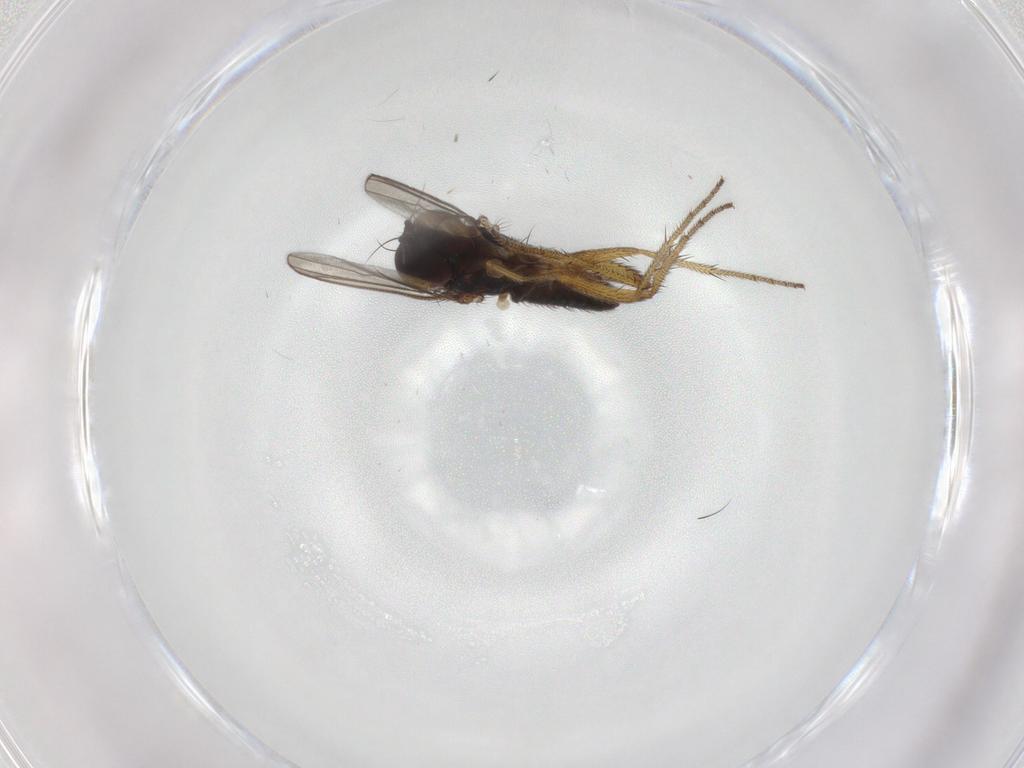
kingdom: Animalia
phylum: Arthropoda
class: Insecta
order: Diptera
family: Dolichopodidae
